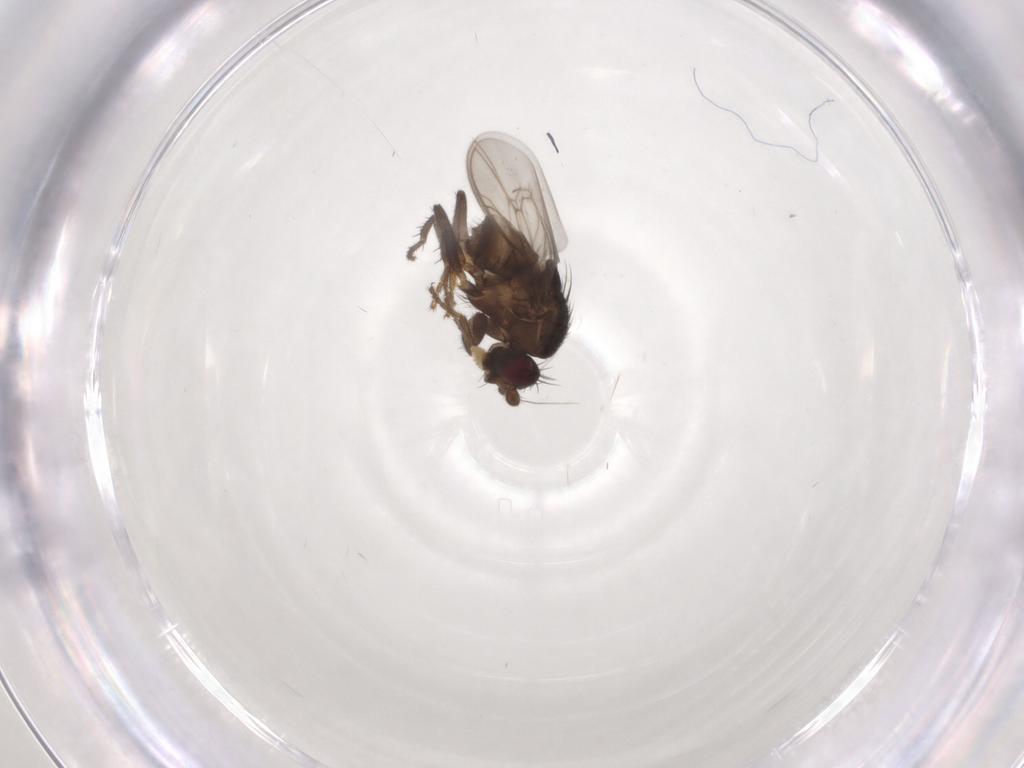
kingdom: Animalia
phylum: Arthropoda
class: Insecta
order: Diptera
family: Sphaeroceridae
